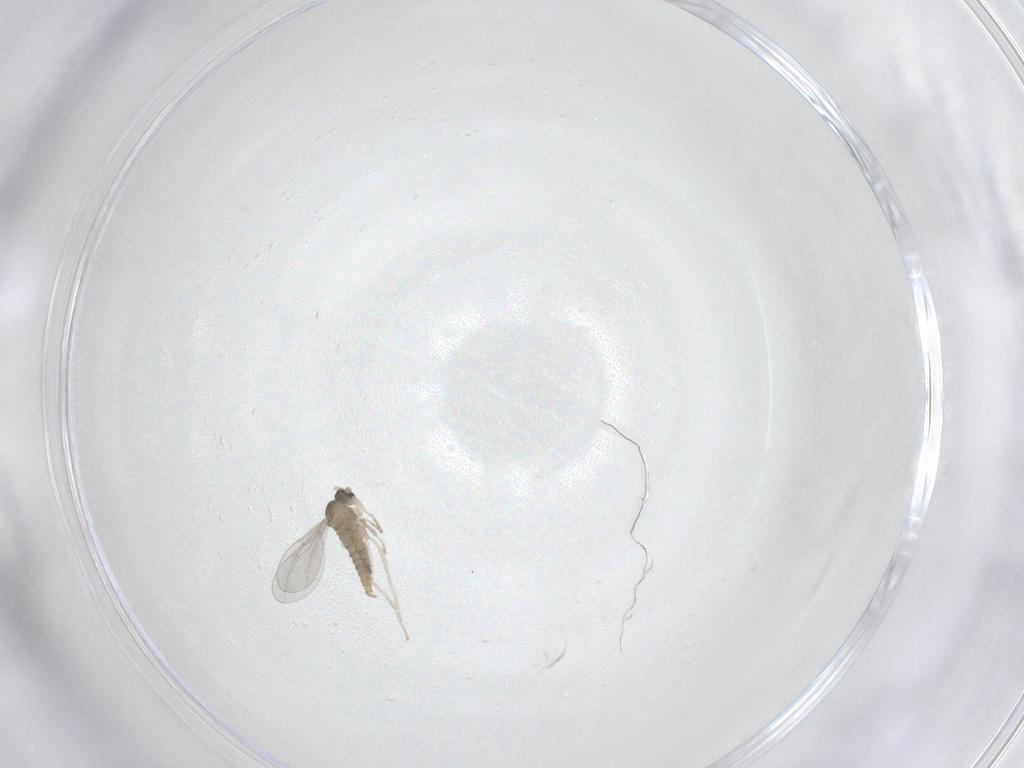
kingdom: Animalia
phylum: Arthropoda
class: Insecta
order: Diptera
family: Cecidomyiidae
